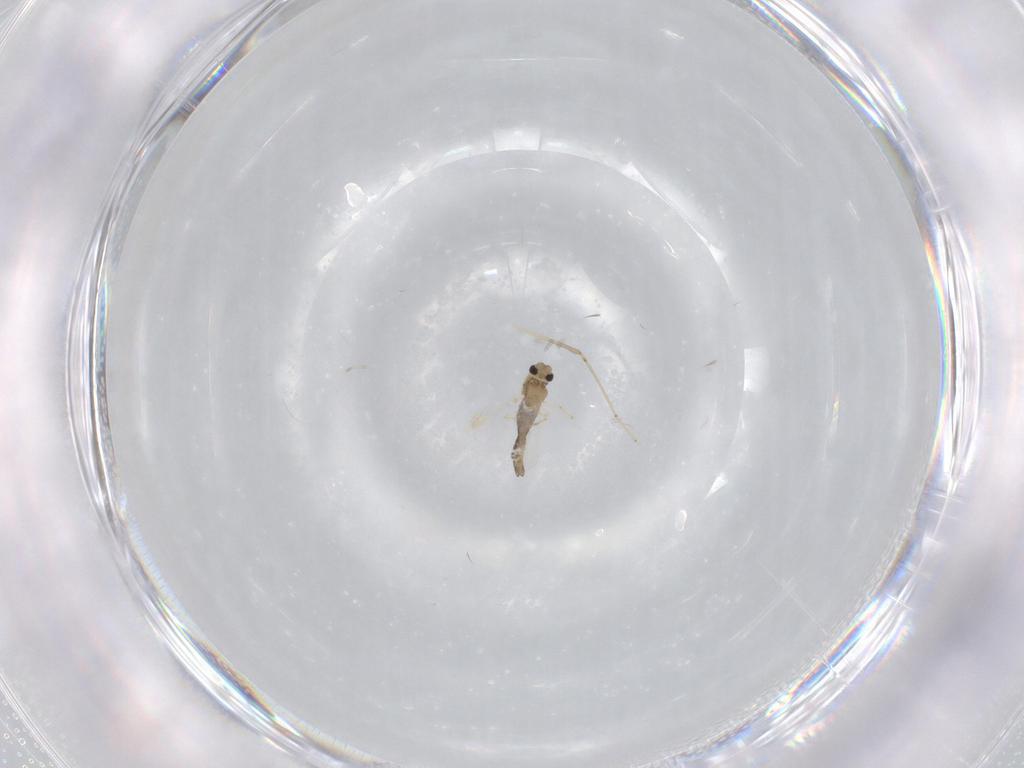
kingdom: Animalia
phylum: Arthropoda
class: Insecta
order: Diptera
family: Chironomidae
